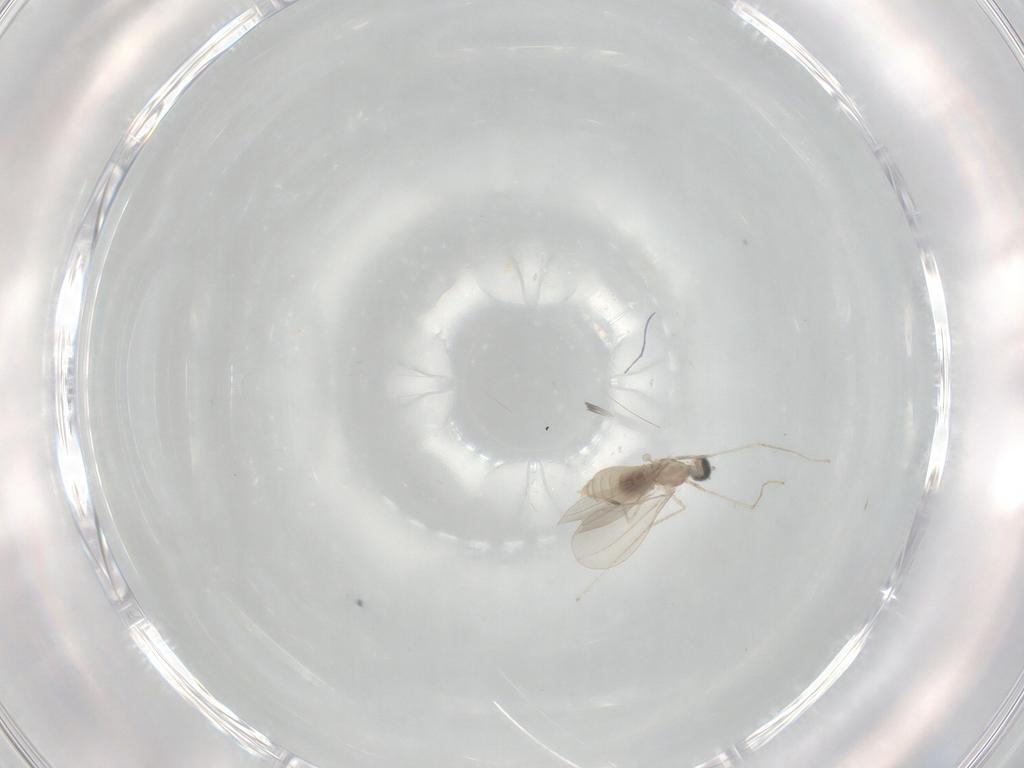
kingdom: Animalia
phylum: Arthropoda
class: Insecta
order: Diptera
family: Cecidomyiidae
